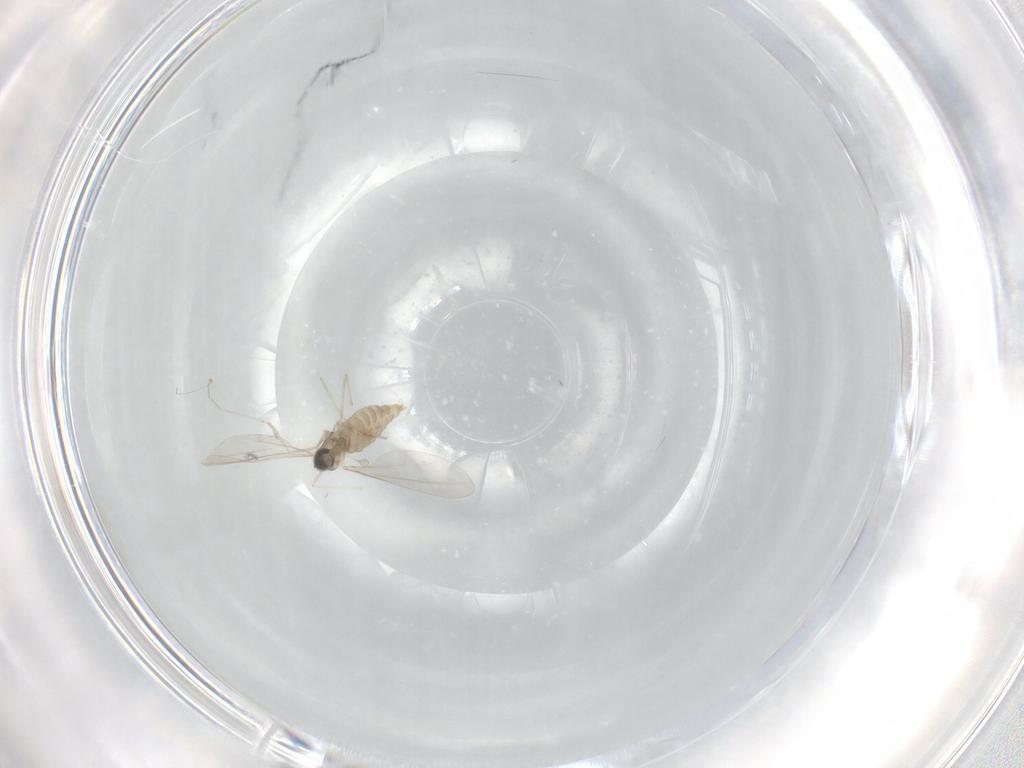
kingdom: Animalia
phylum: Arthropoda
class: Insecta
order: Diptera
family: Cecidomyiidae
